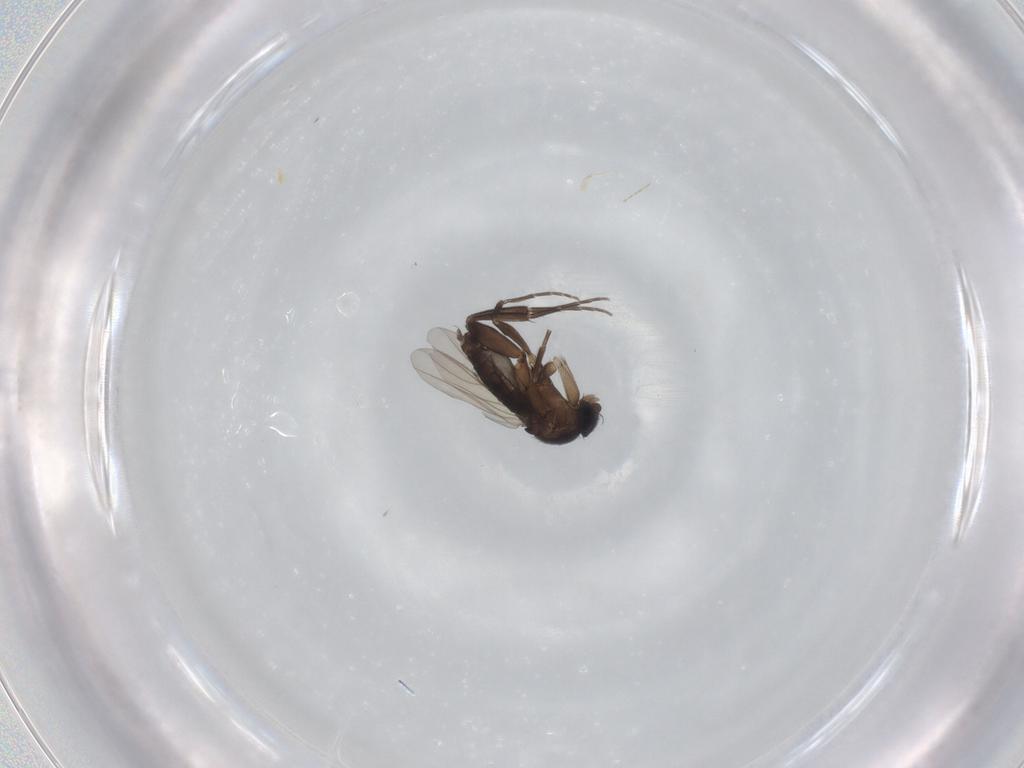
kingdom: Animalia
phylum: Arthropoda
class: Insecta
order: Diptera
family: Phoridae
